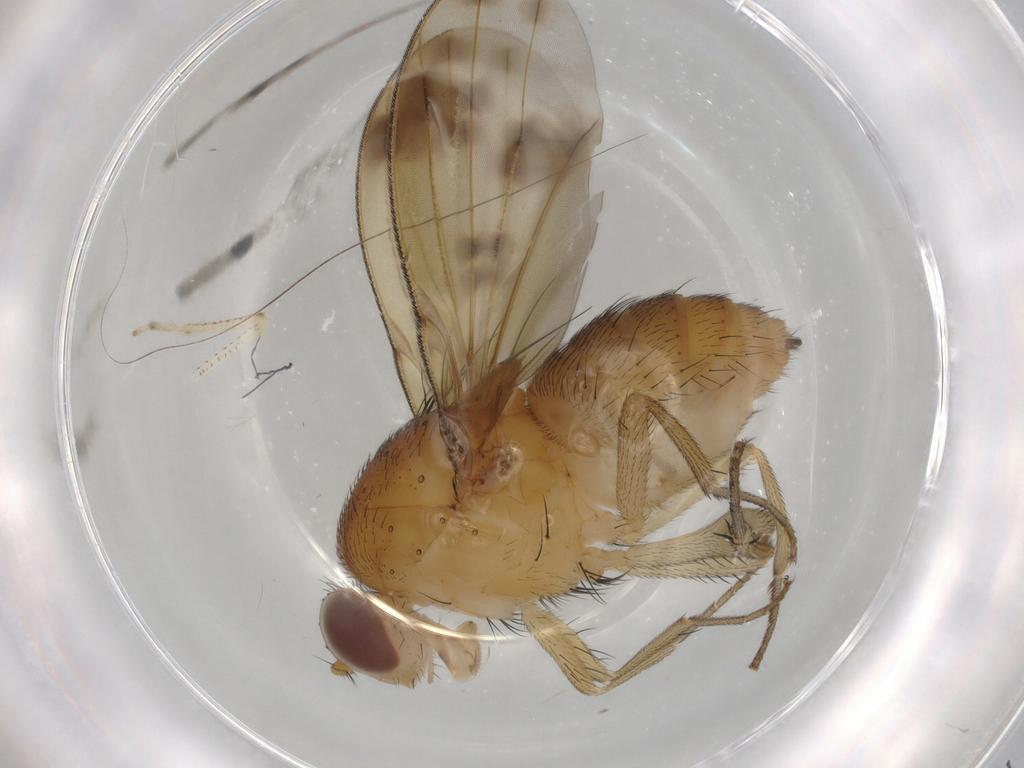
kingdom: Animalia
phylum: Arthropoda
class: Insecta
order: Diptera
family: Chaoboridae
